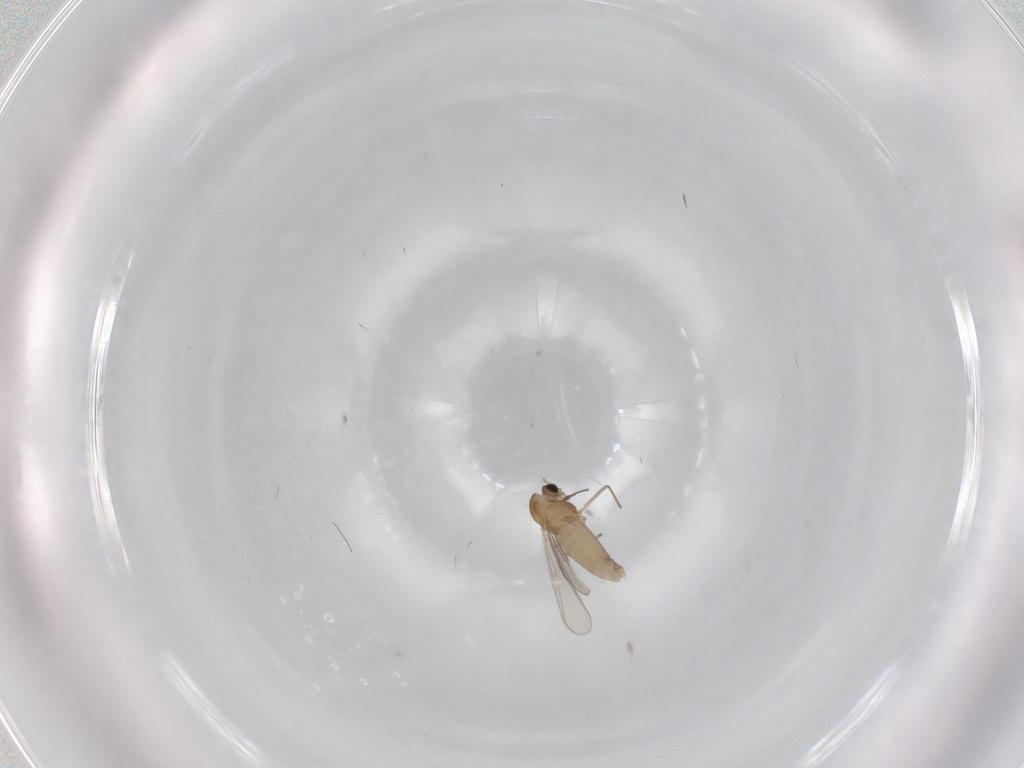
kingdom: Animalia
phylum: Arthropoda
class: Insecta
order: Diptera
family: Chironomidae
